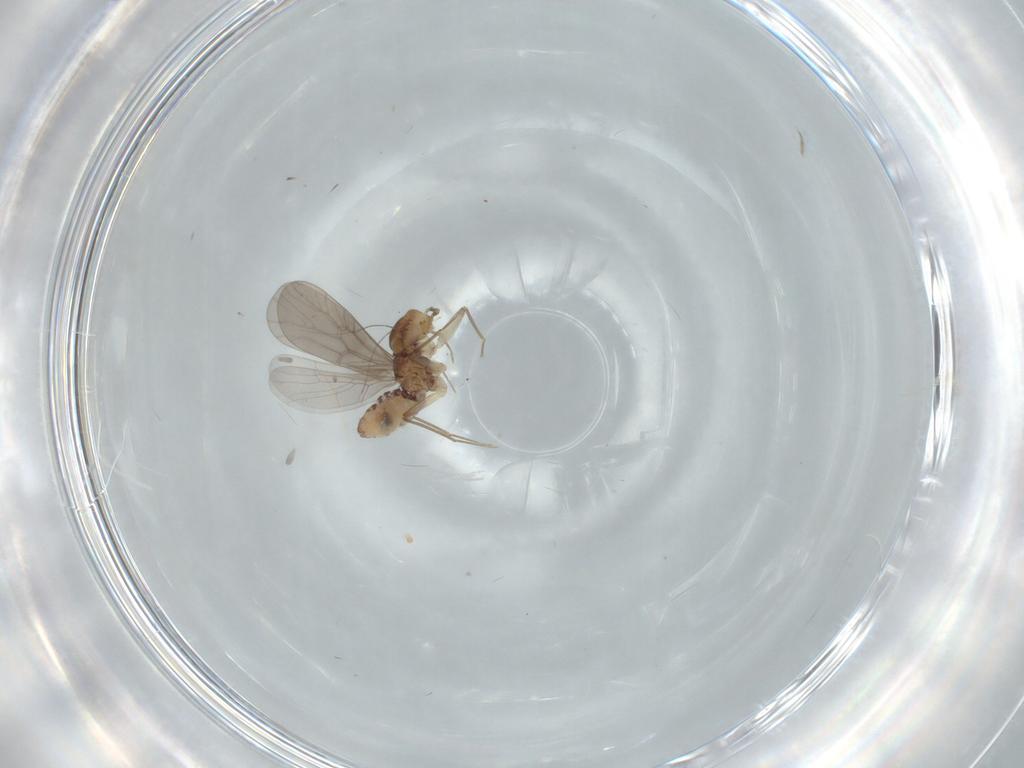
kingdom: Animalia
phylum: Arthropoda
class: Insecta
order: Psocodea
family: Lepidopsocidae
